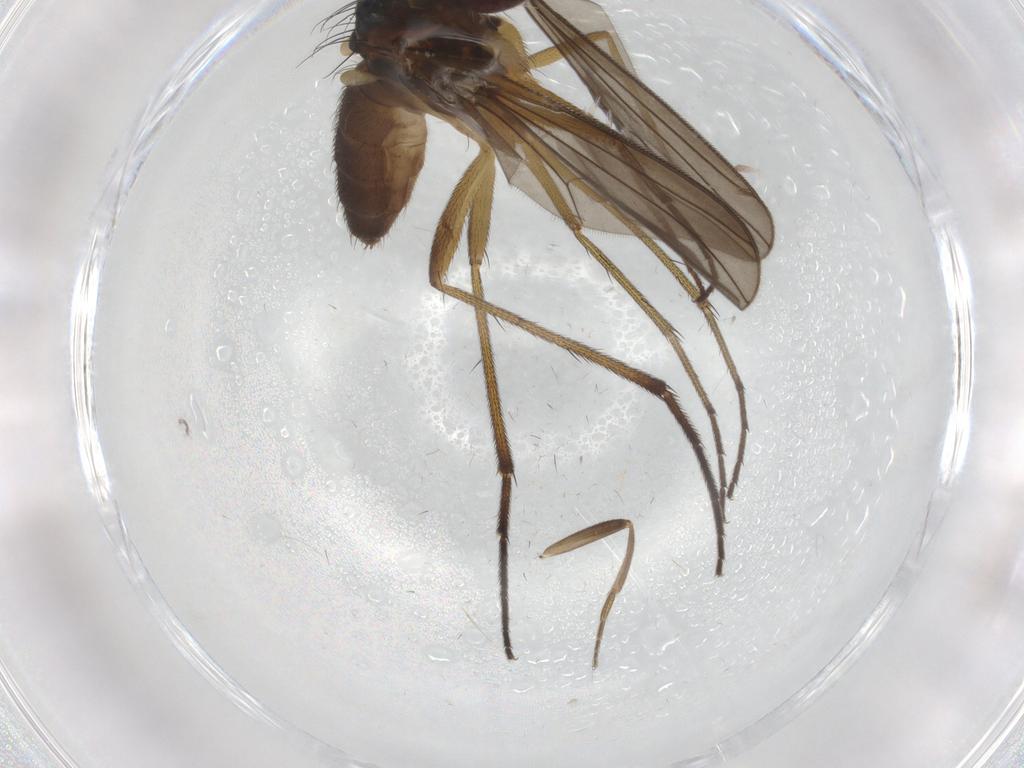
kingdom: Animalia
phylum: Arthropoda
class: Insecta
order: Diptera
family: Dolichopodidae
